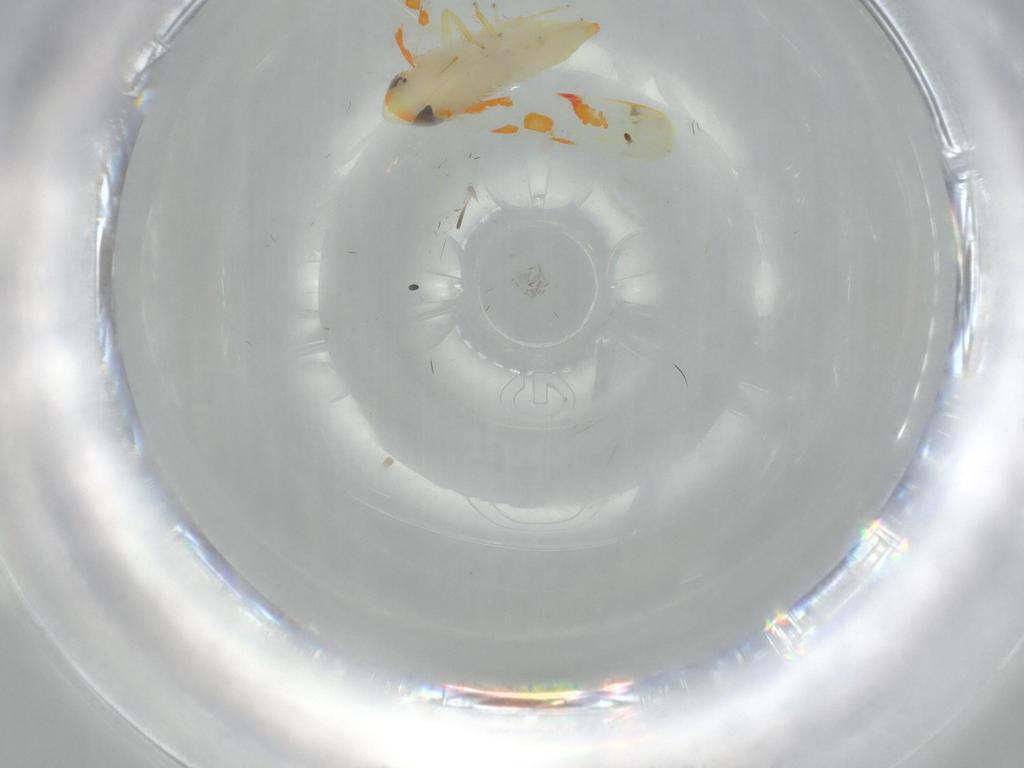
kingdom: Animalia
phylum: Arthropoda
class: Insecta
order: Hemiptera
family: Cicadellidae
